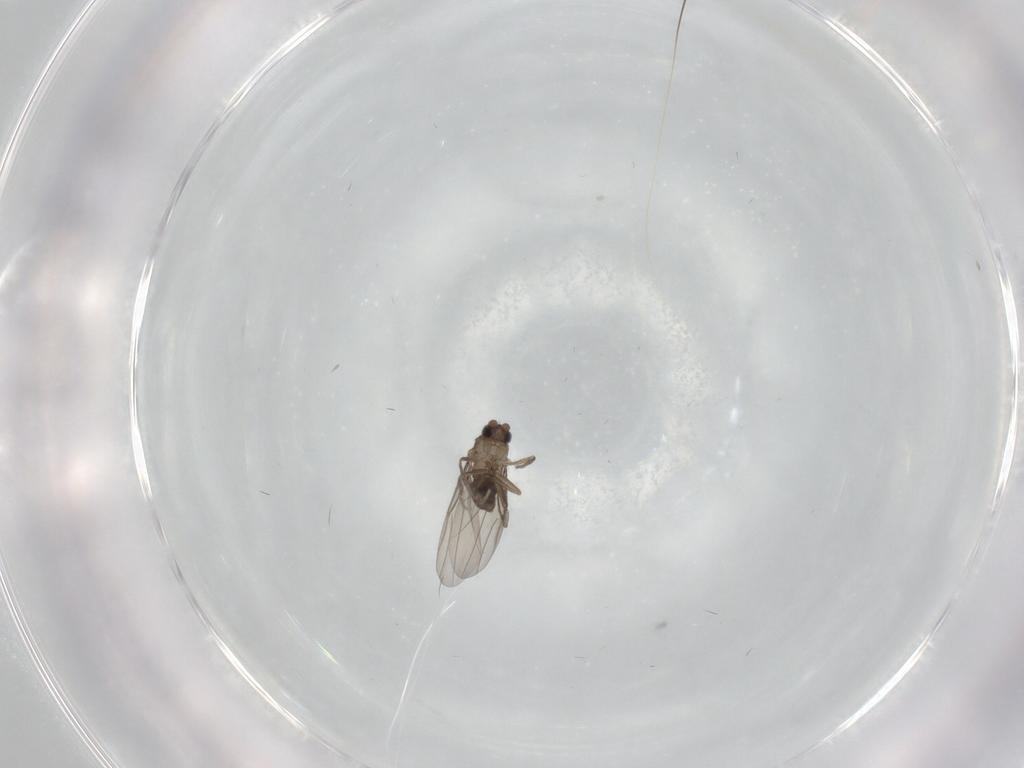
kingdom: Animalia
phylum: Arthropoda
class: Insecta
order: Diptera
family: Phoridae
